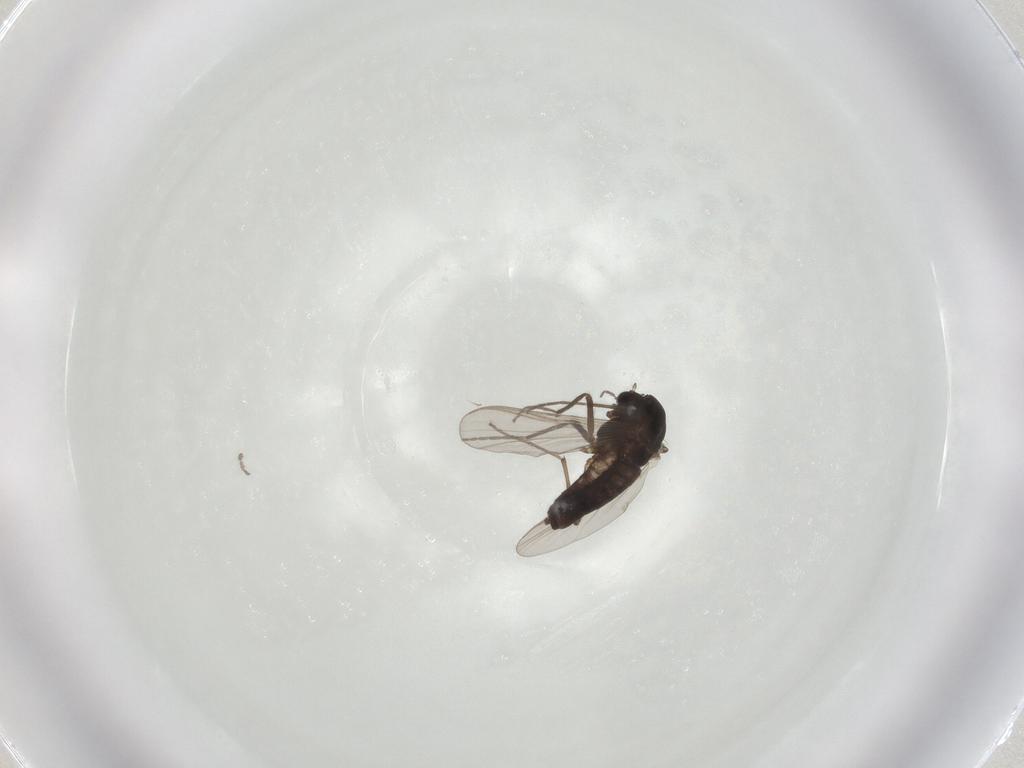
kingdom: Animalia
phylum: Arthropoda
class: Insecta
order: Diptera
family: Chironomidae
